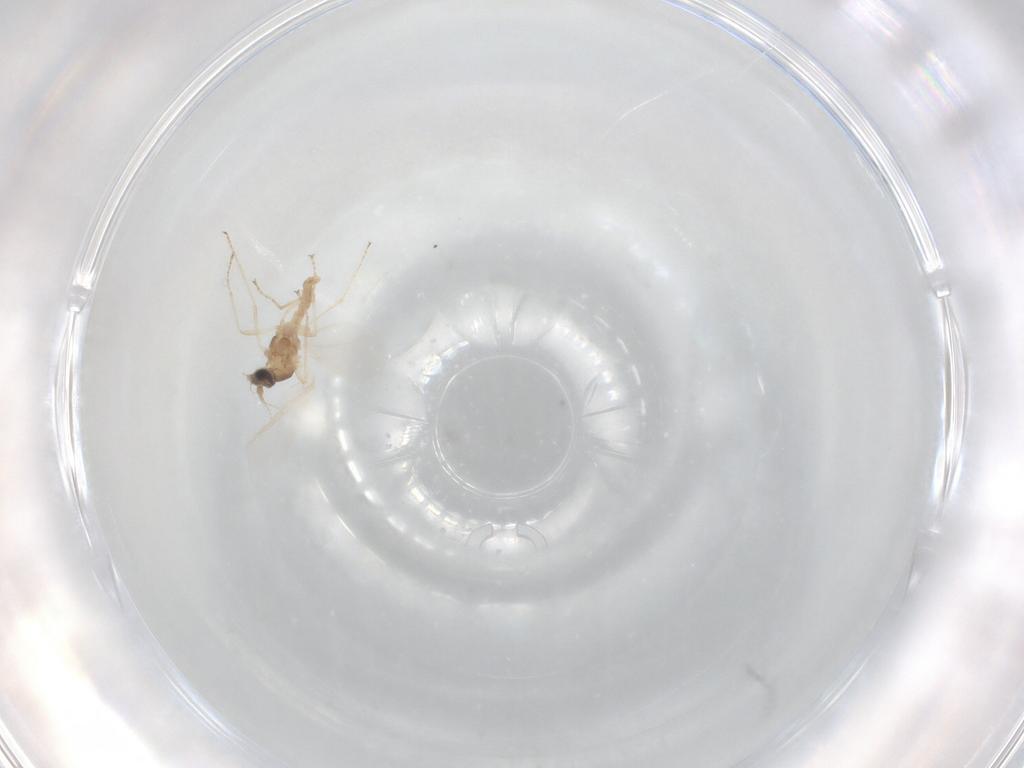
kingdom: Animalia
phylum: Arthropoda
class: Insecta
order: Diptera
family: Cecidomyiidae
